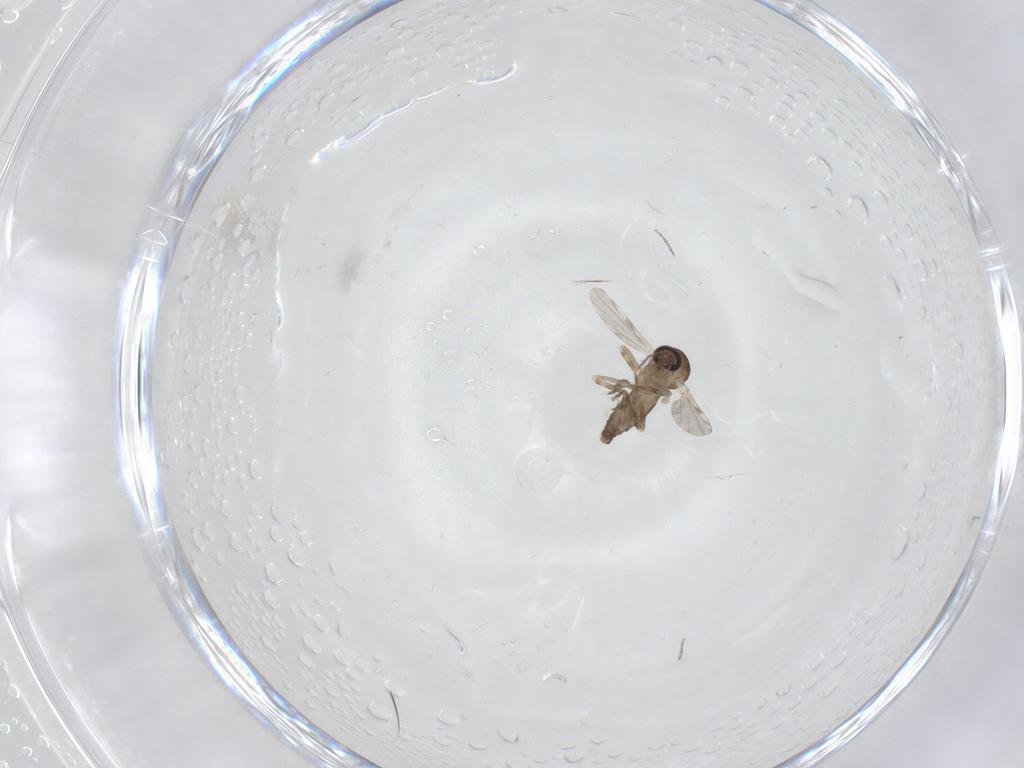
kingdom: Animalia
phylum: Arthropoda
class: Insecta
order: Diptera
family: Ceratopogonidae
